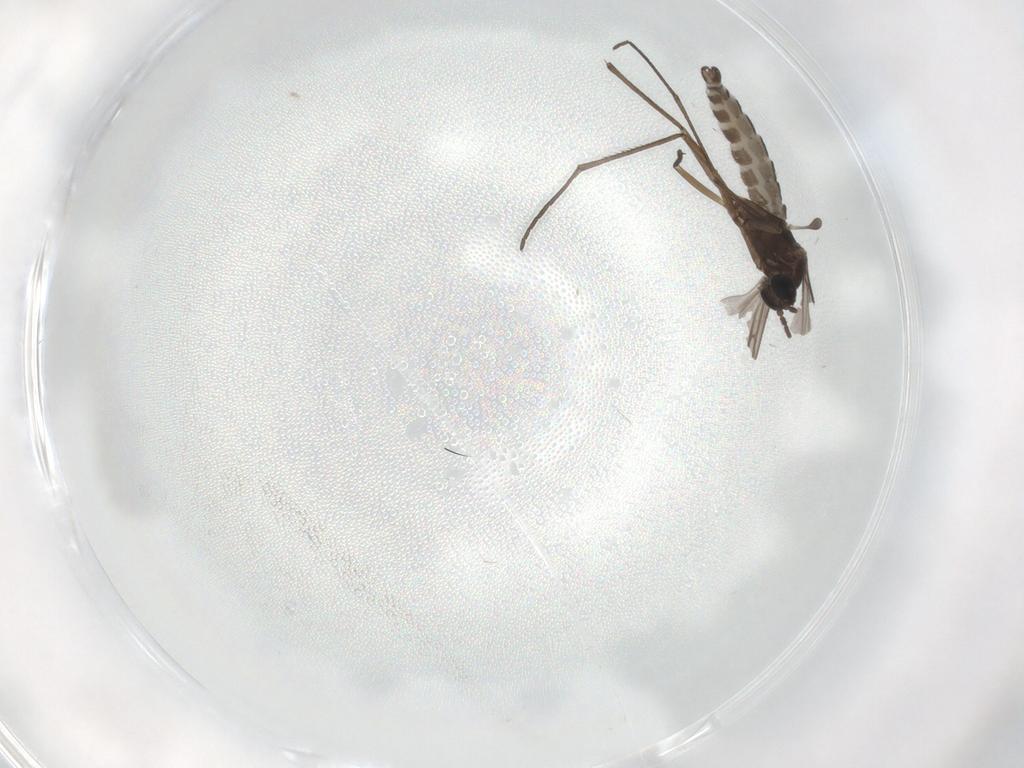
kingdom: Animalia
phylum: Arthropoda
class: Insecta
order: Diptera
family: Sciaridae
